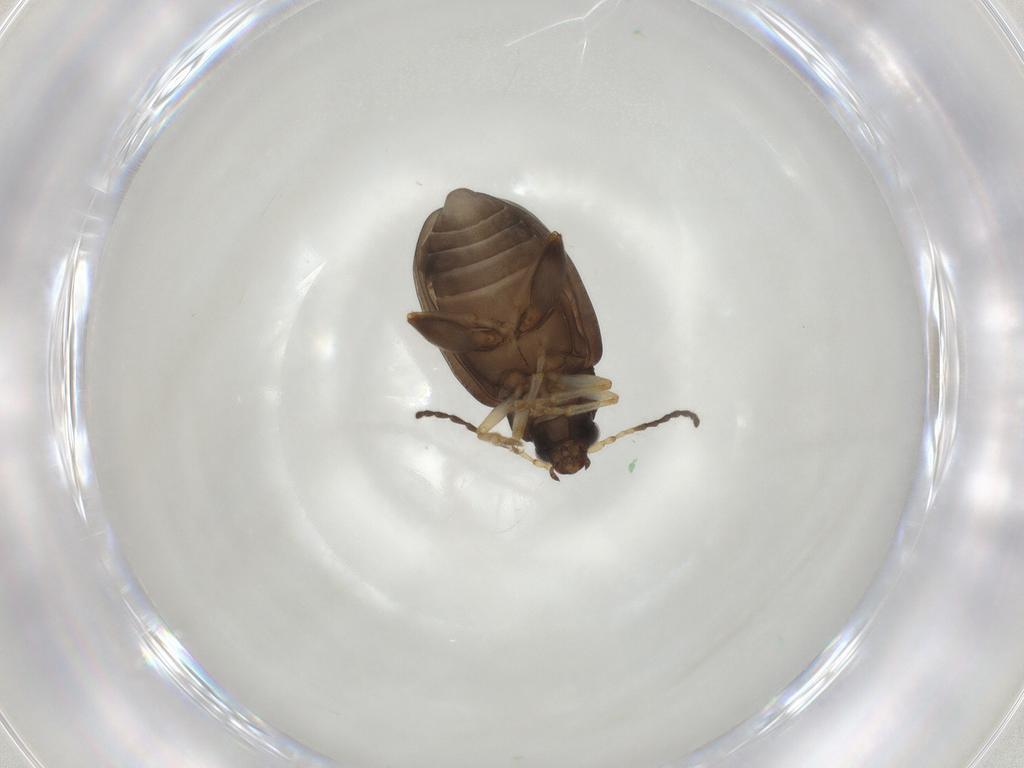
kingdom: Animalia
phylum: Arthropoda
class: Insecta
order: Coleoptera
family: Chrysomelidae
